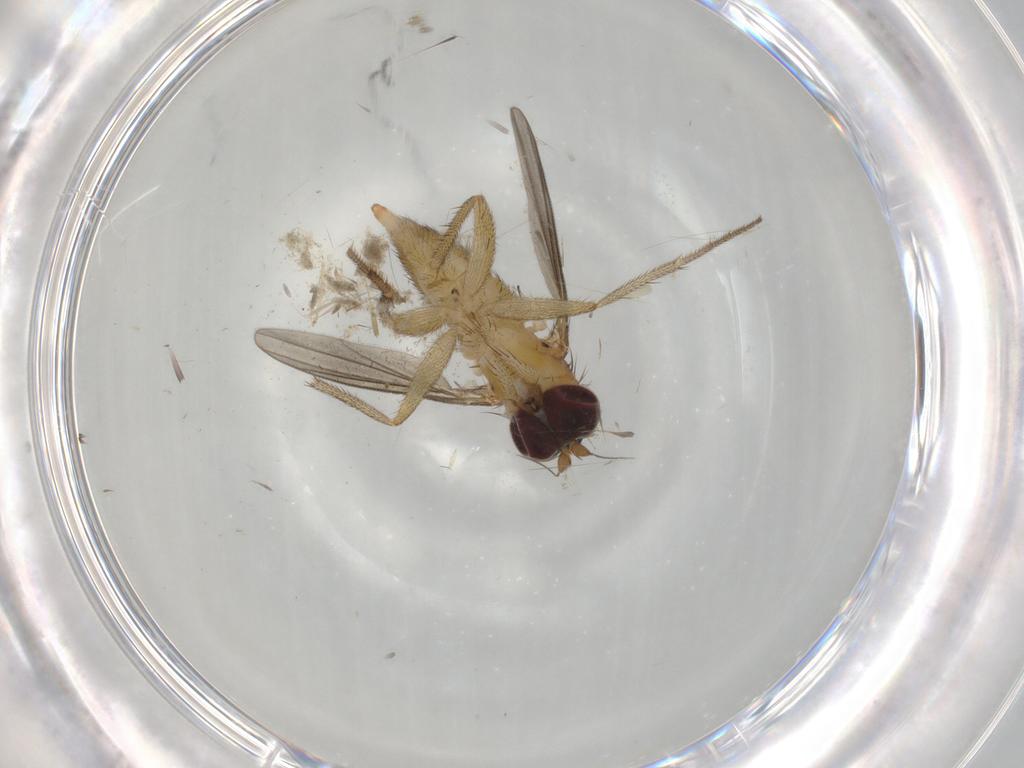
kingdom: Animalia
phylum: Arthropoda
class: Insecta
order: Diptera
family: Dolichopodidae
